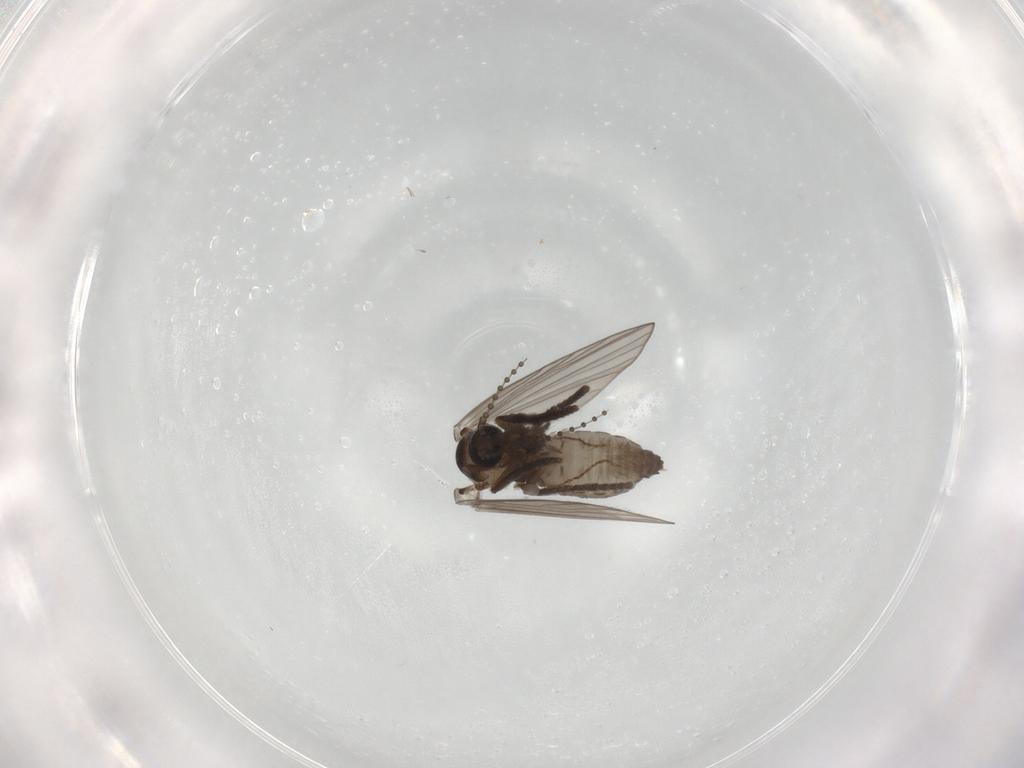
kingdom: Animalia
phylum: Arthropoda
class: Insecta
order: Diptera
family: Psychodidae
